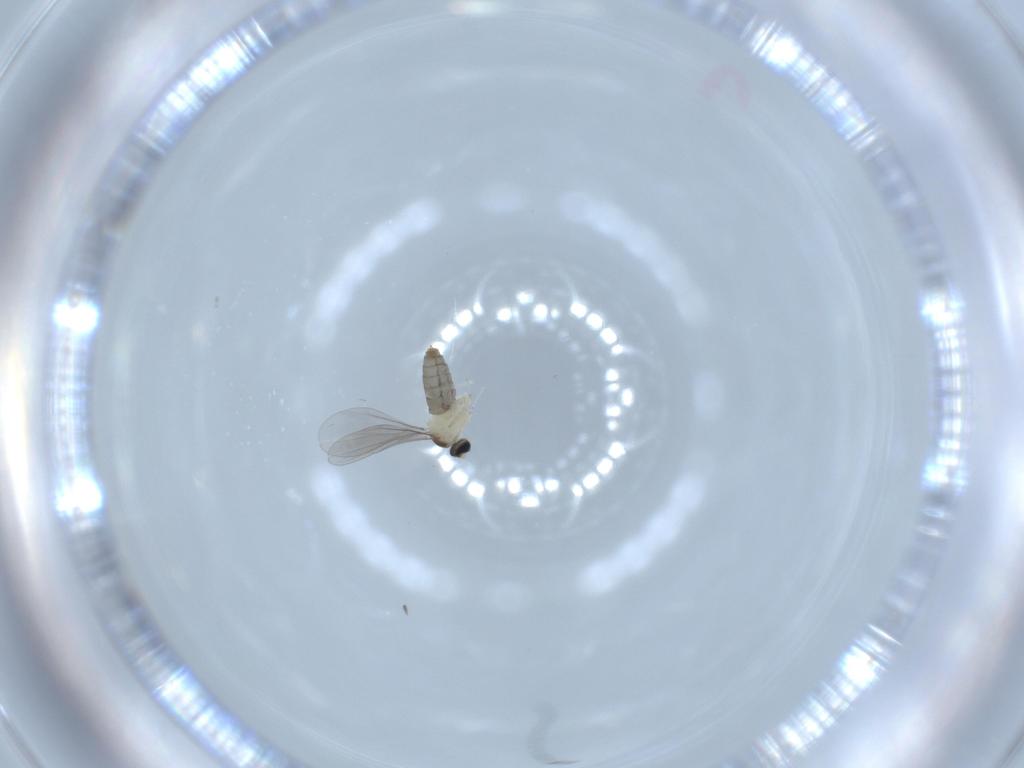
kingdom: Animalia
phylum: Arthropoda
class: Insecta
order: Diptera
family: Cecidomyiidae
